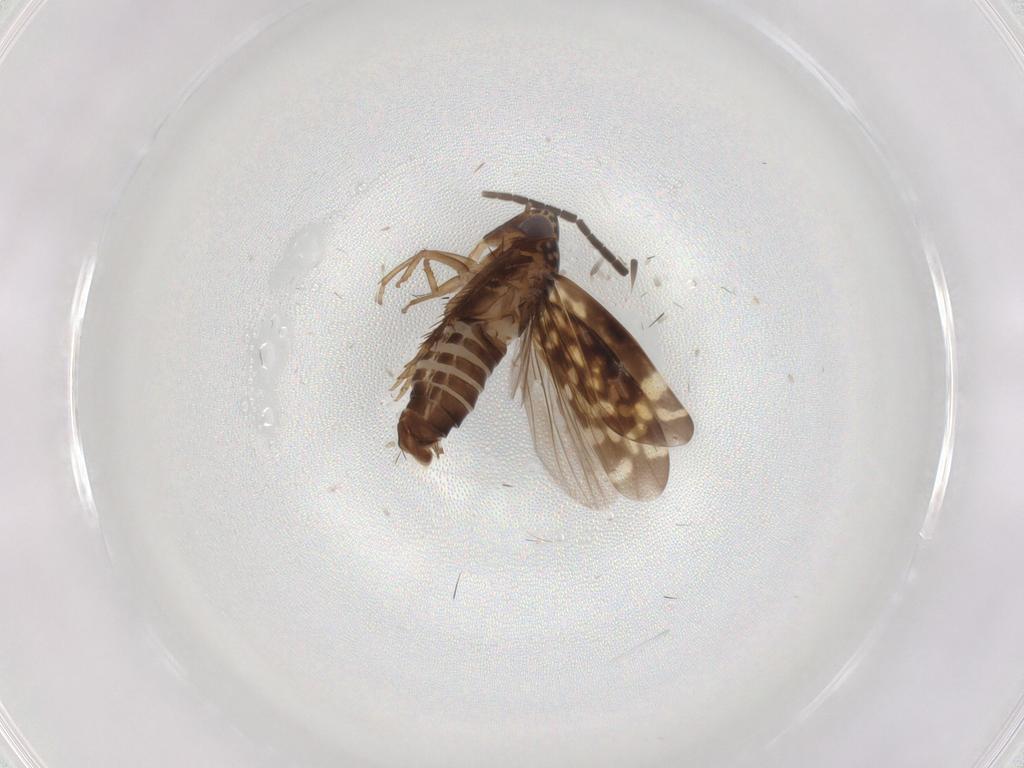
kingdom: Animalia
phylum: Arthropoda
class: Insecta
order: Hemiptera
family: Cicadellidae
